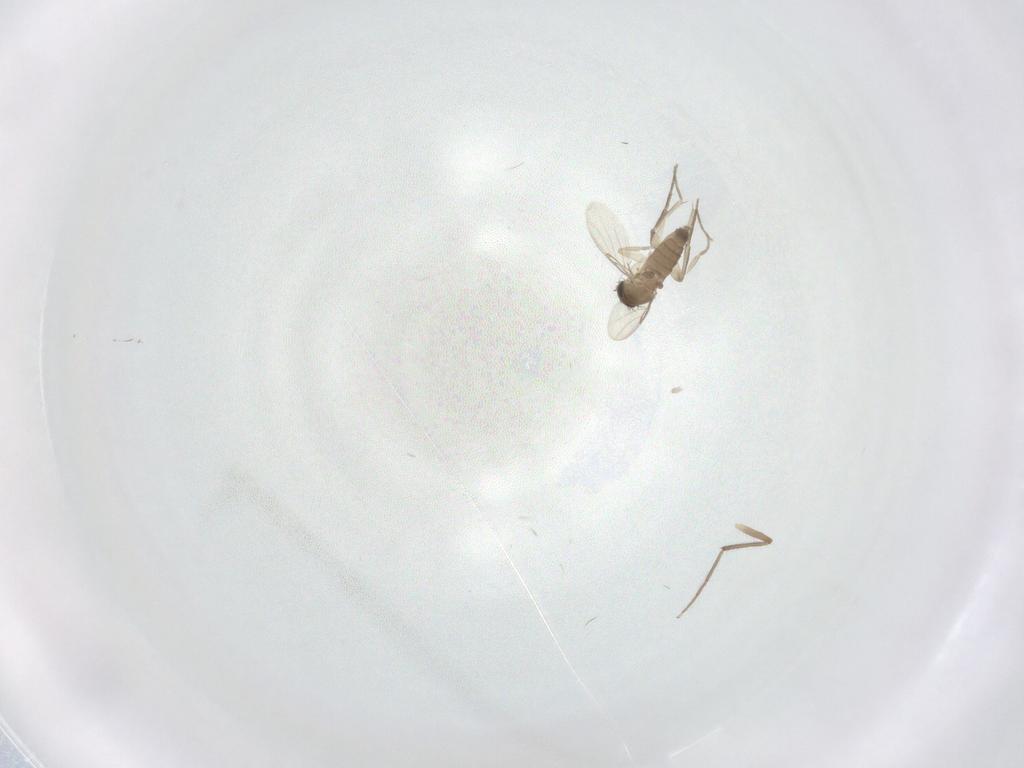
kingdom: Animalia
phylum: Arthropoda
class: Insecta
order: Diptera
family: Phoridae
